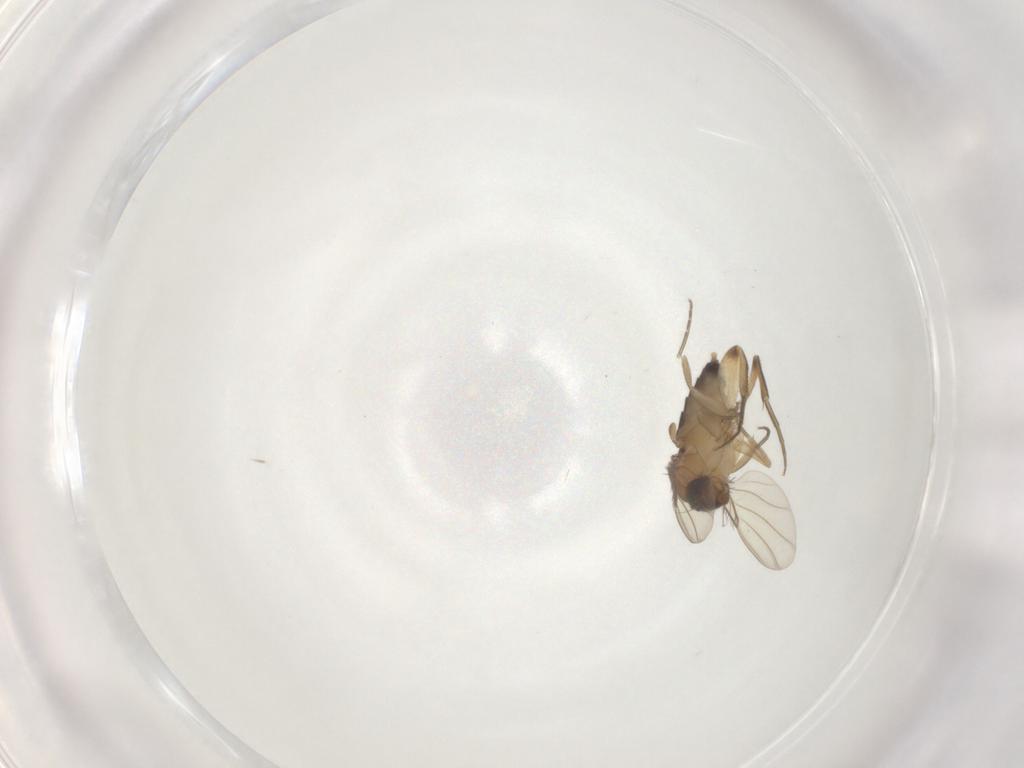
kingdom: Animalia
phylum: Arthropoda
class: Insecta
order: Diptera
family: Phoridae
